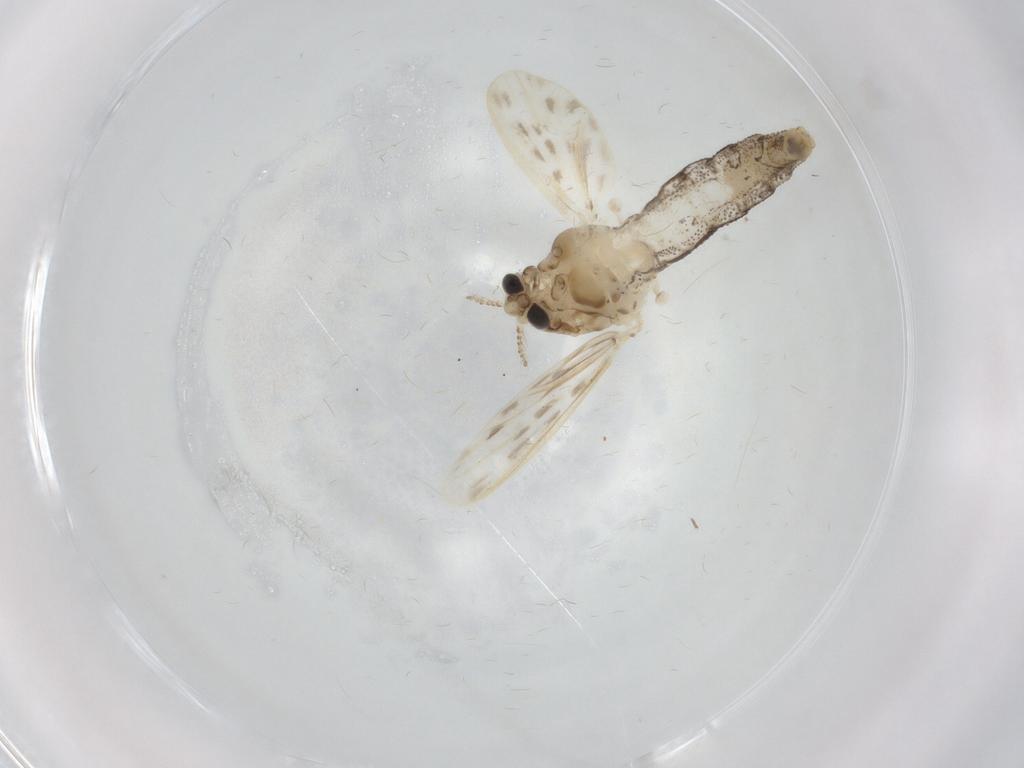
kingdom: Animalia
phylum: Arthropoda
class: Insecta
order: Diptera
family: Chaoboridae
